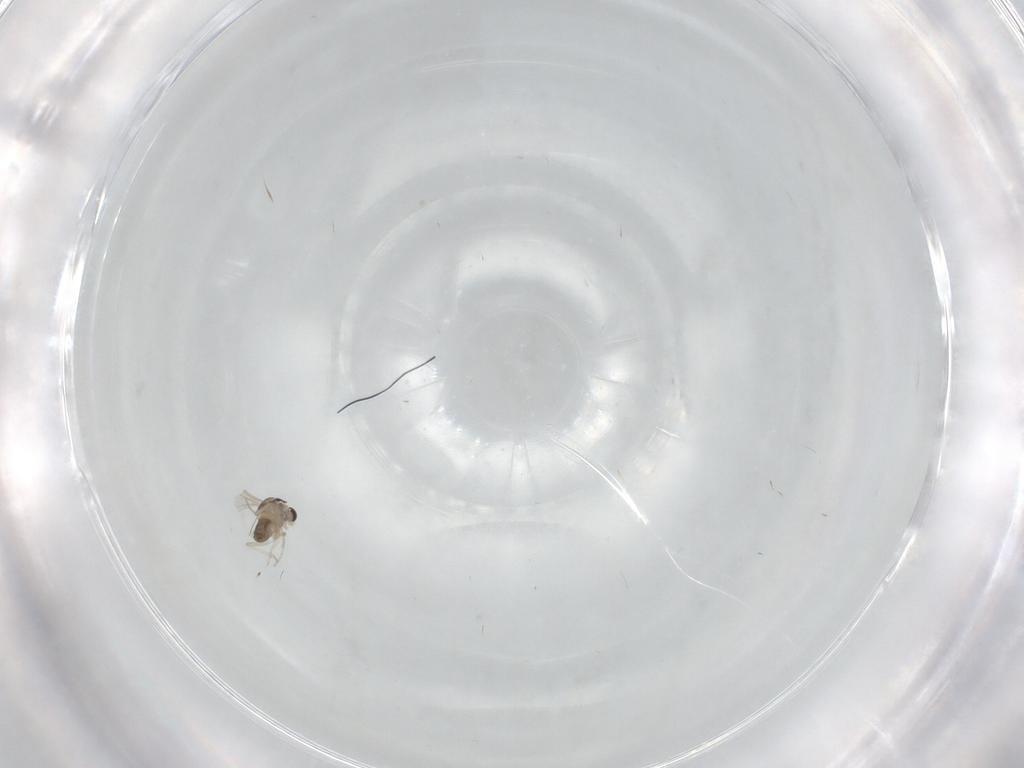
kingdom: Animalia
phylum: Arthropoda
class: Insecta
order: Diptera
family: Cecidomyiidae
